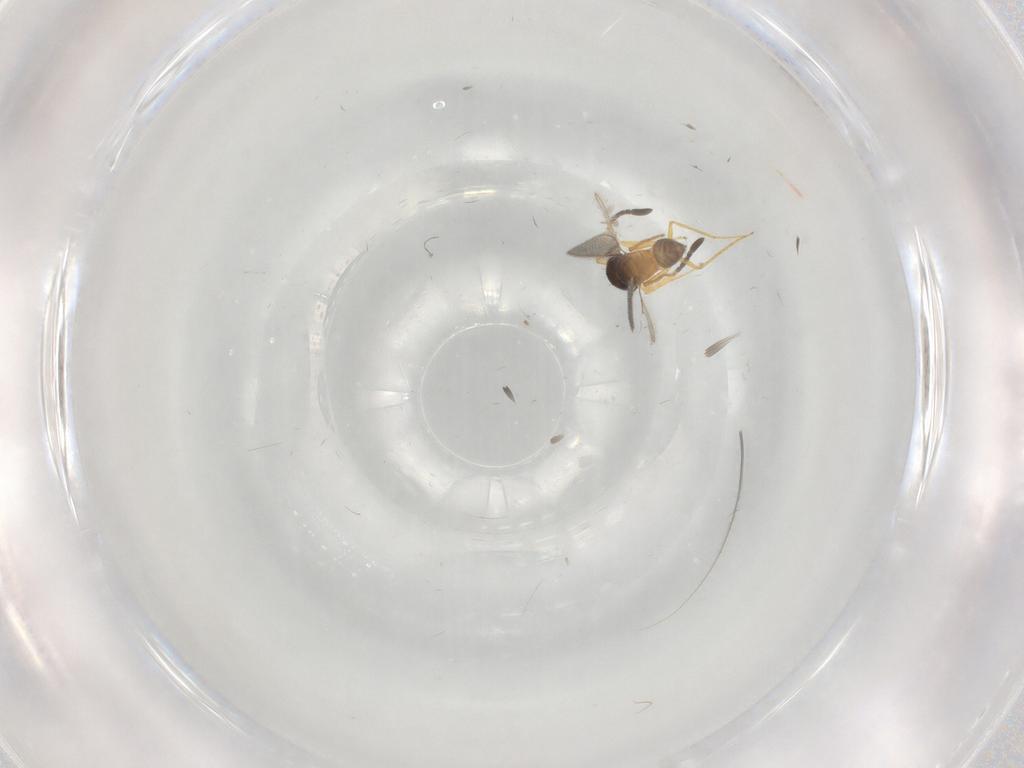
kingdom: Animalia
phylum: Arthropoda
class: Insecta
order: Hymenoptera
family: Mymaridae
